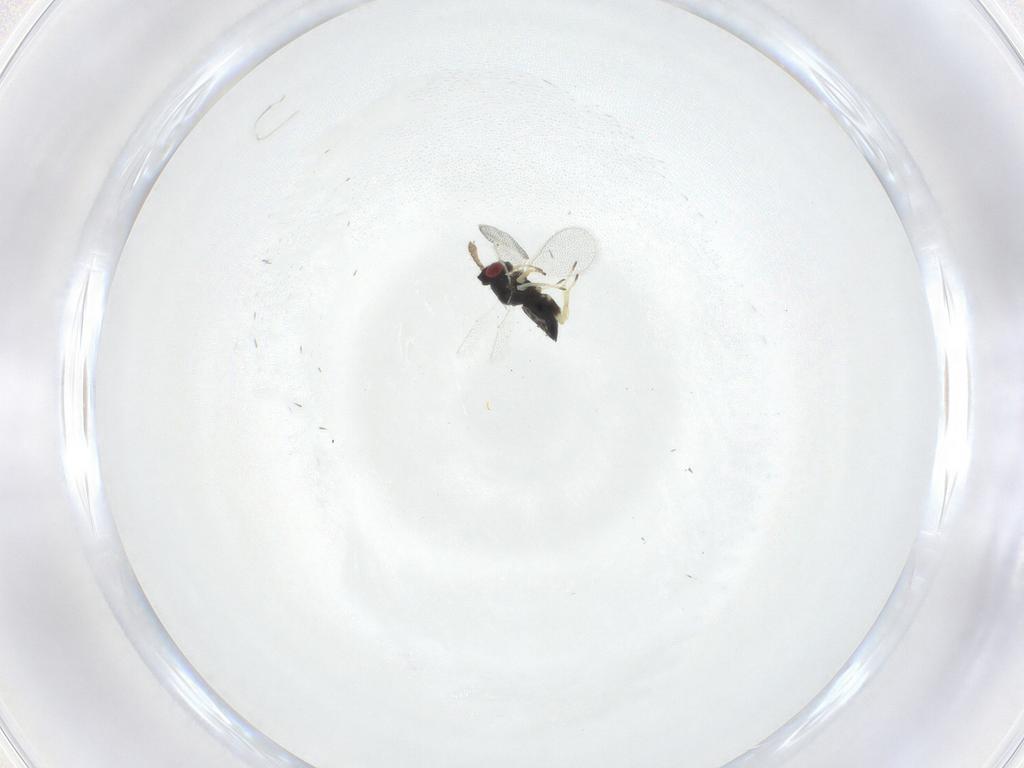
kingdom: Animalia
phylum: Arthropoda
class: Insecta
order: Hymenoptera
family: Eulophidae
